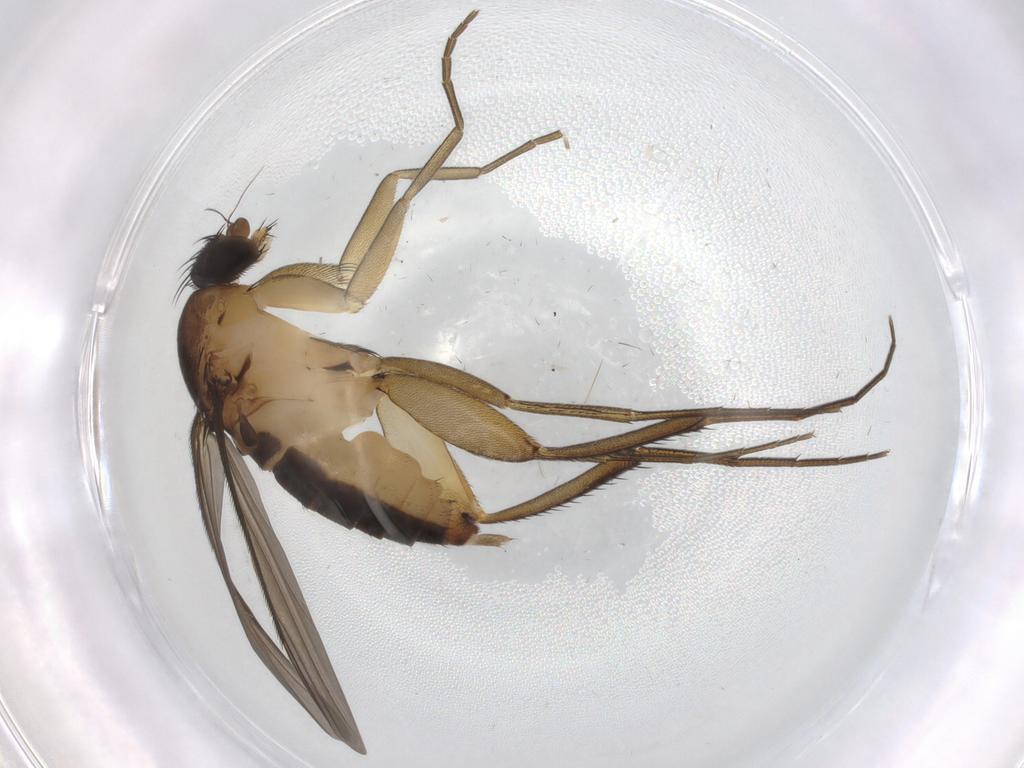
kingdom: Animalia
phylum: Arthropoda
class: Insecta
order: Diptera
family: Phoridae
